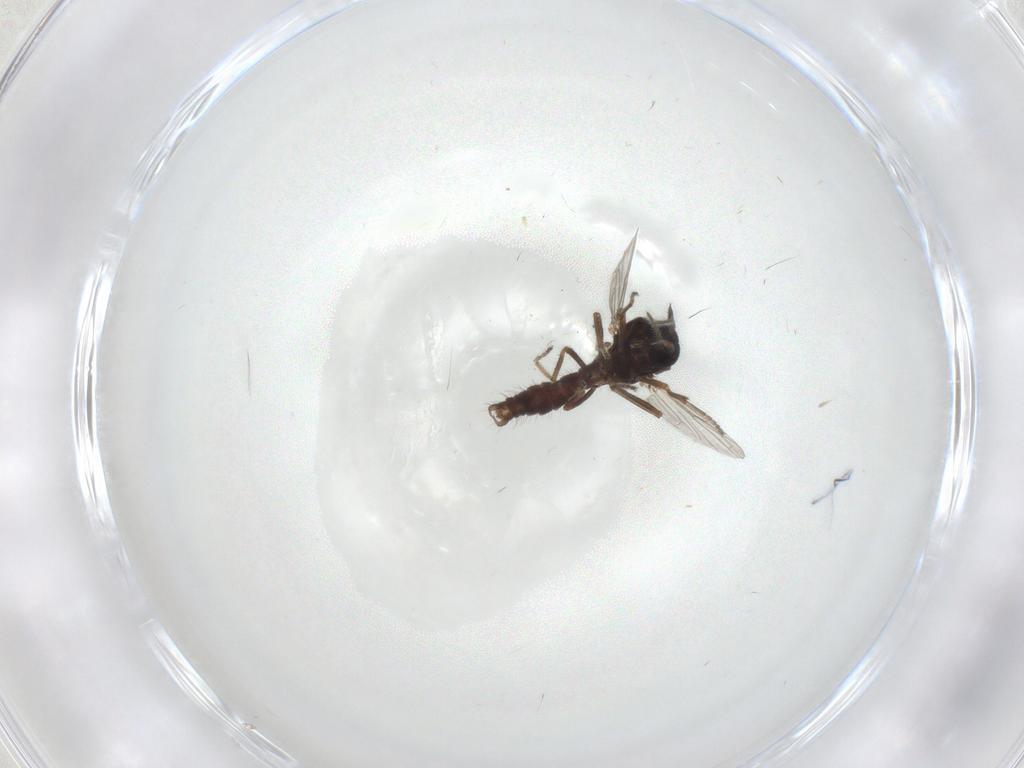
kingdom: Animalia
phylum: Arthropoda
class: Insecta
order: Diptera
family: Ceratopogonidae
